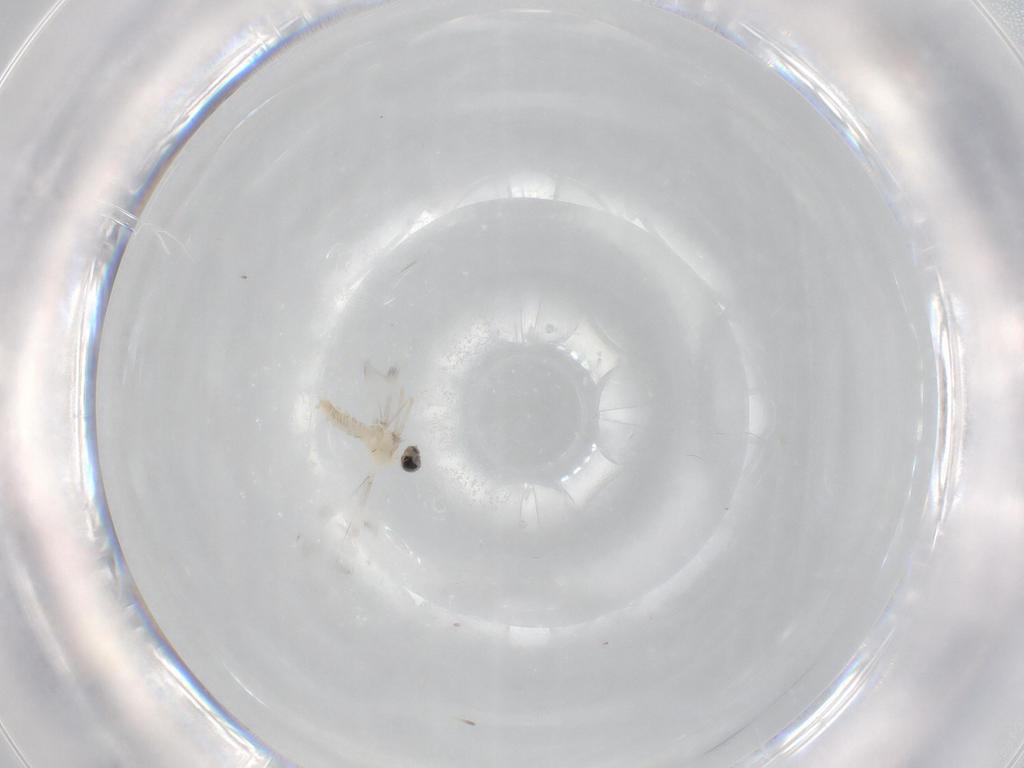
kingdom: Animalia
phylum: Arthropoda
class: Insecta
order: Diptera
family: Cecidomyiidae
